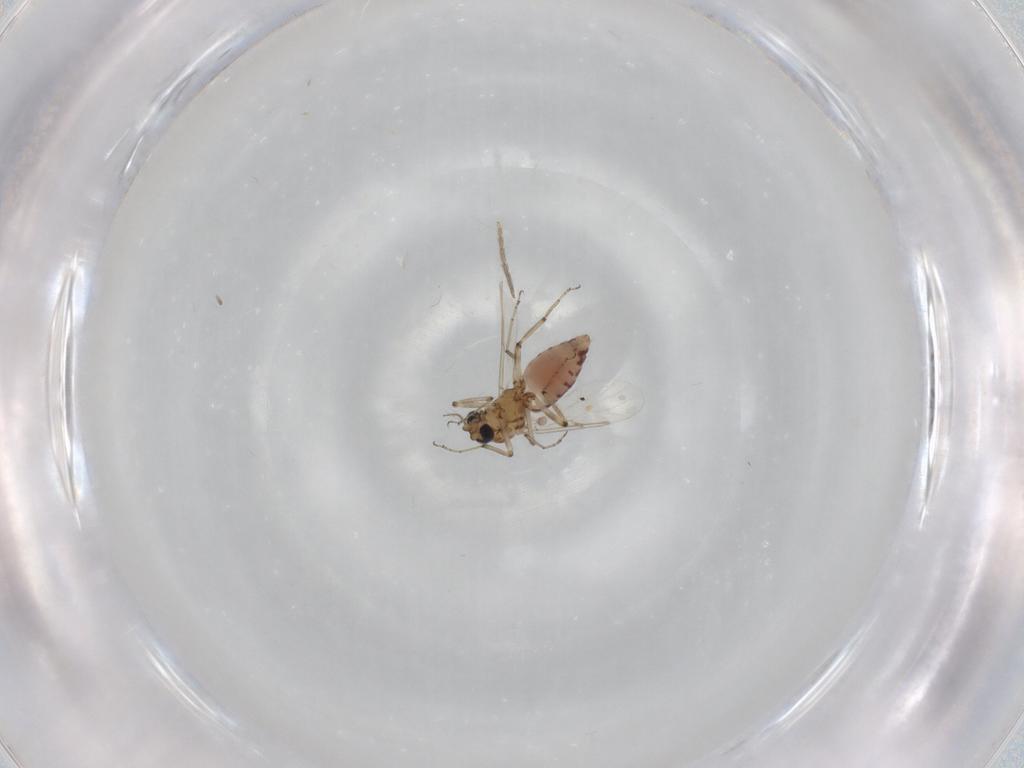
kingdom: Animalia
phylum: Arthropoda
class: Insecta
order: Diptera
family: Ceratopogonidae
